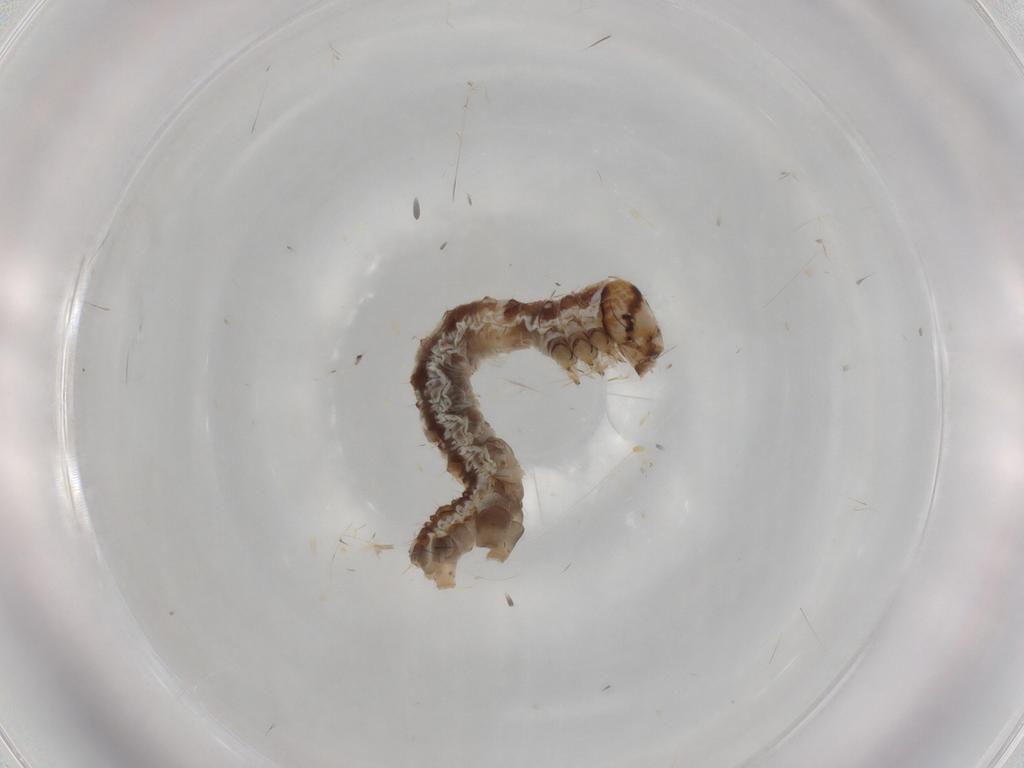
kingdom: Animalia
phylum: Arthropoda
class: Insecta
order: Lepidoptera
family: Geometridae
